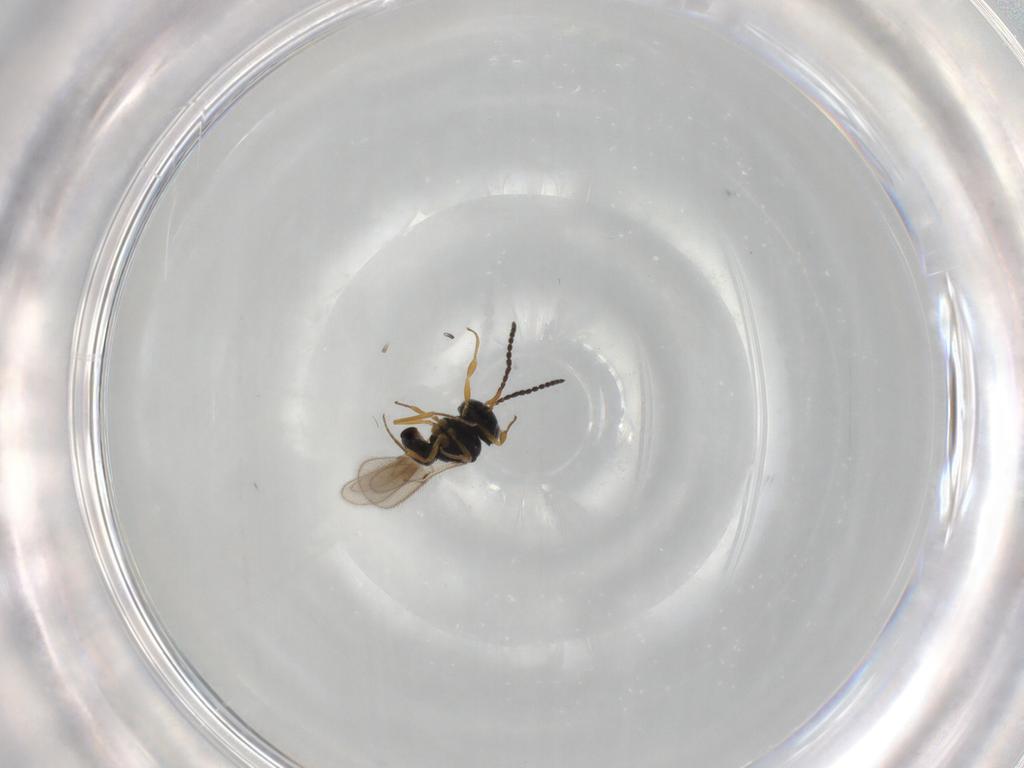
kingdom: Animalia
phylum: Arthropoda
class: Insecta
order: Hymenoptera
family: Scelionidae
